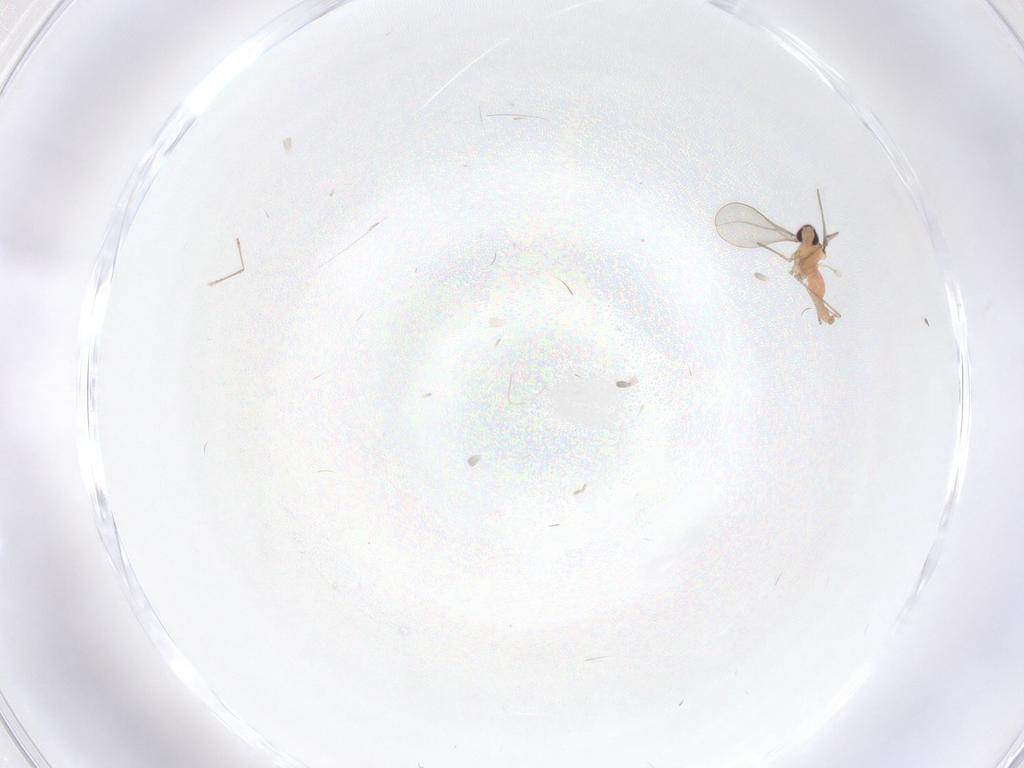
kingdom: Animalia
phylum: Arthropoda
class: Insecta
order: Diptera
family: Cecidomyiidae
